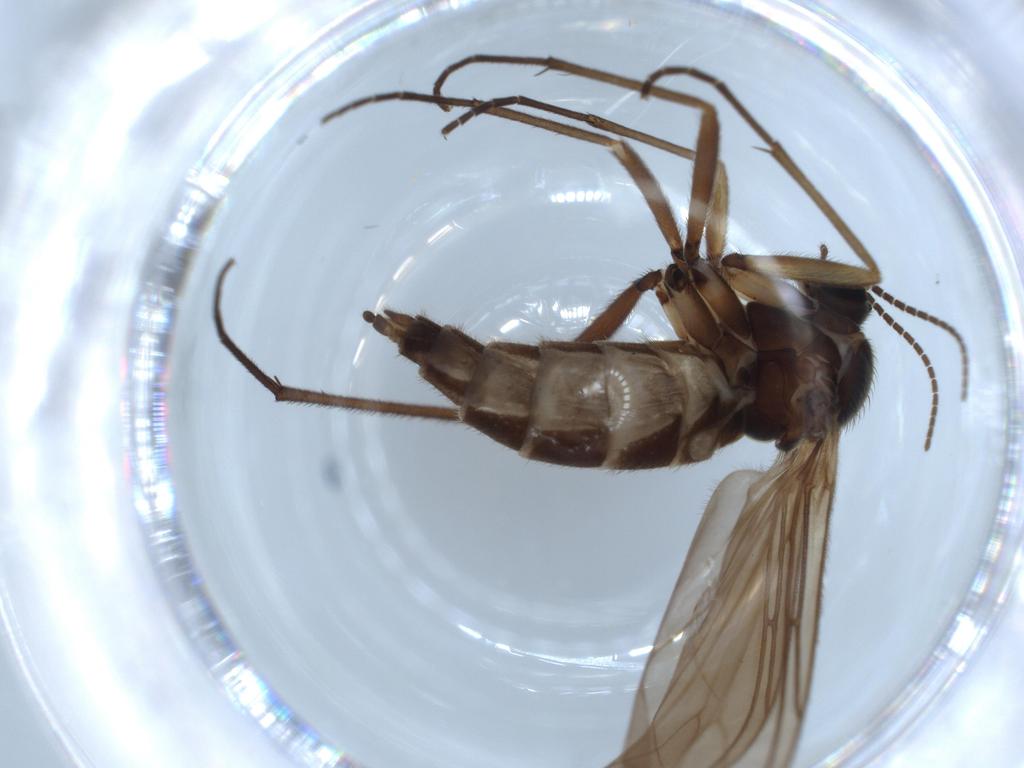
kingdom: Animalia
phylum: Arthropoda
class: Insecta
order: Diptera
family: Sciaridae
